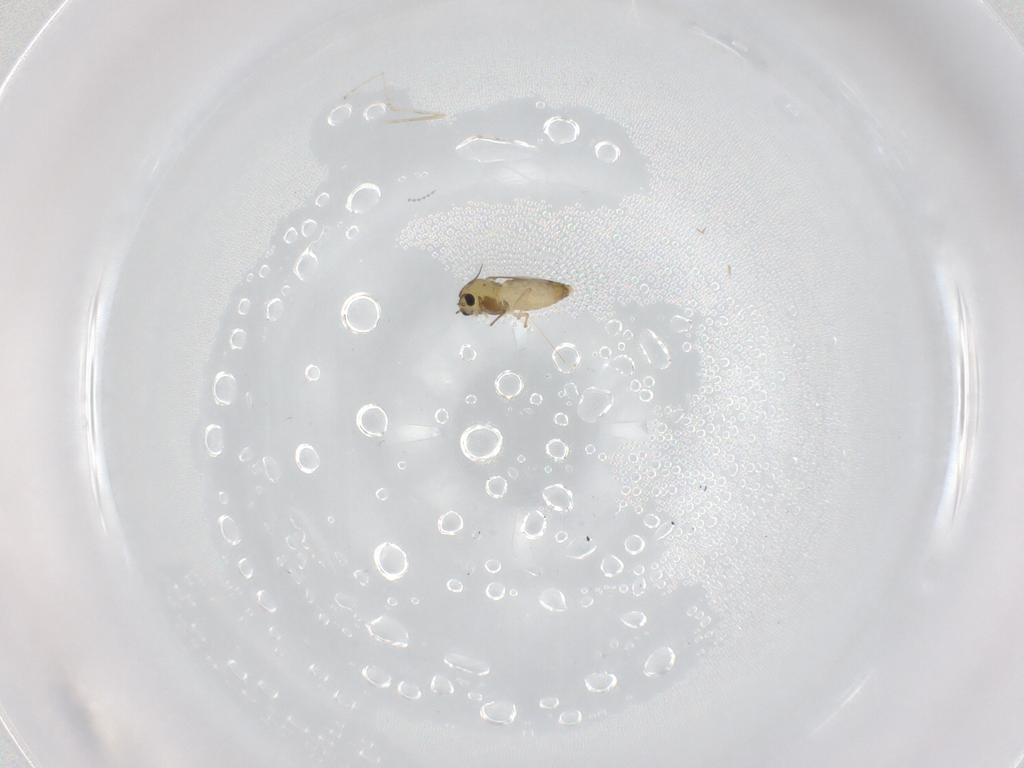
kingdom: Animalia
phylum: Arthropoda
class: Insecta
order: Diptera
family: Chironomidae
